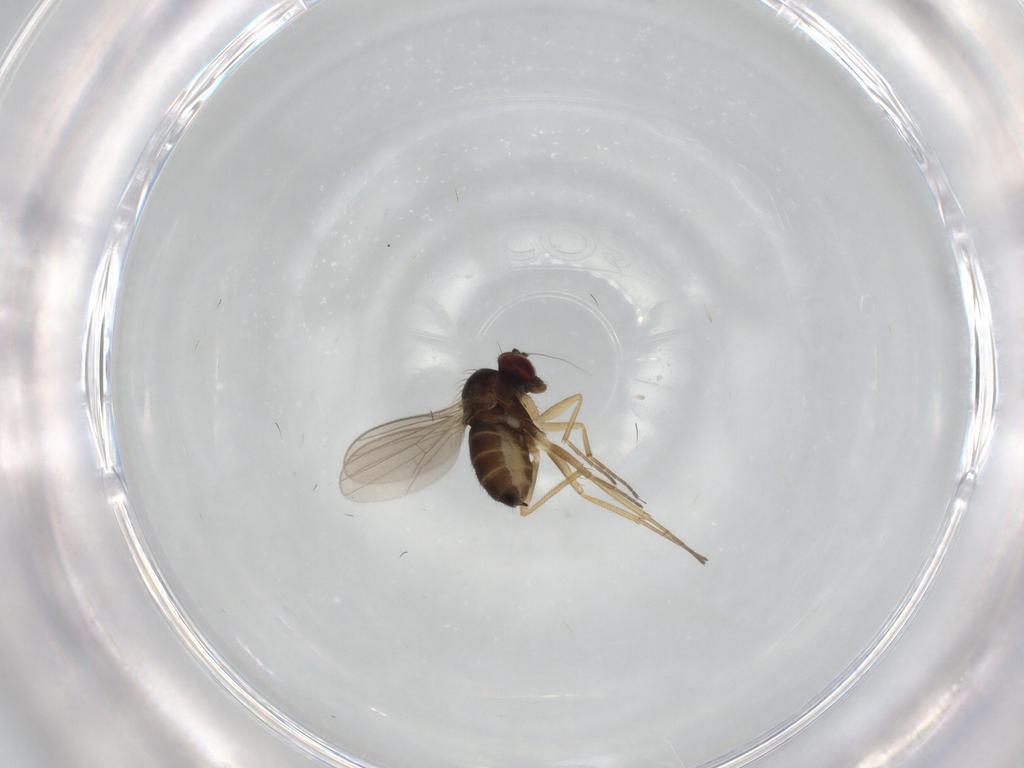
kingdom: Animalia
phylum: Arthropoda
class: Insecta
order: Diptera
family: Dolichopodidae
